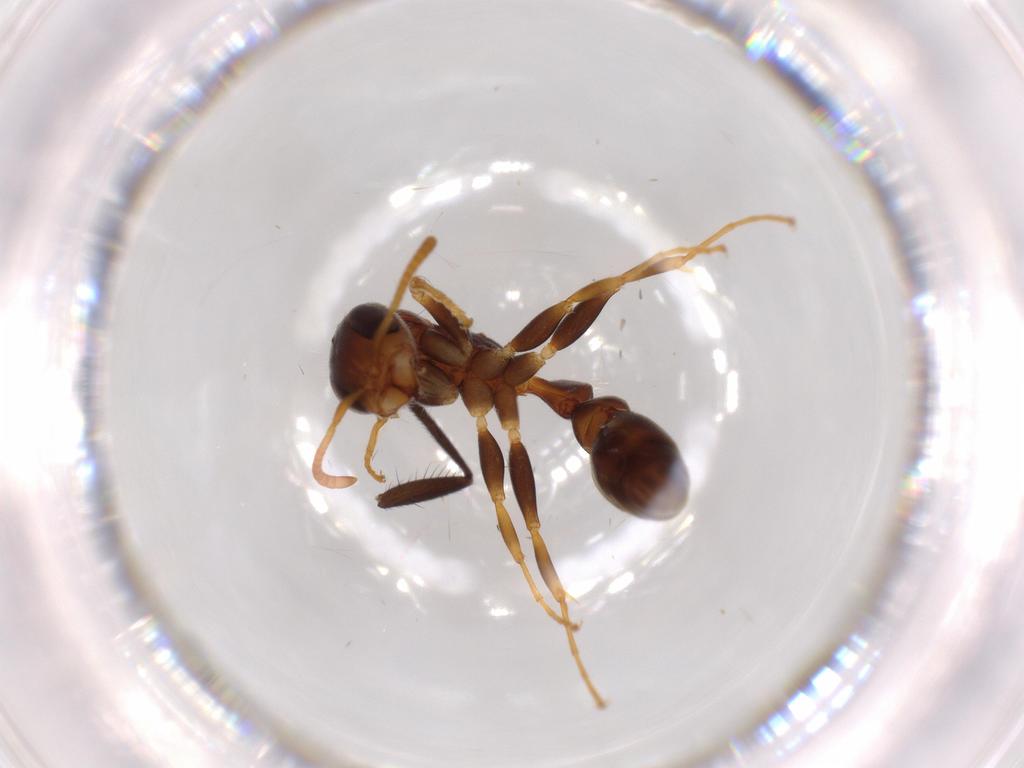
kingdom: Animalia
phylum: Arthropoda
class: Insecta
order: Hymenoptera
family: Formicidae
